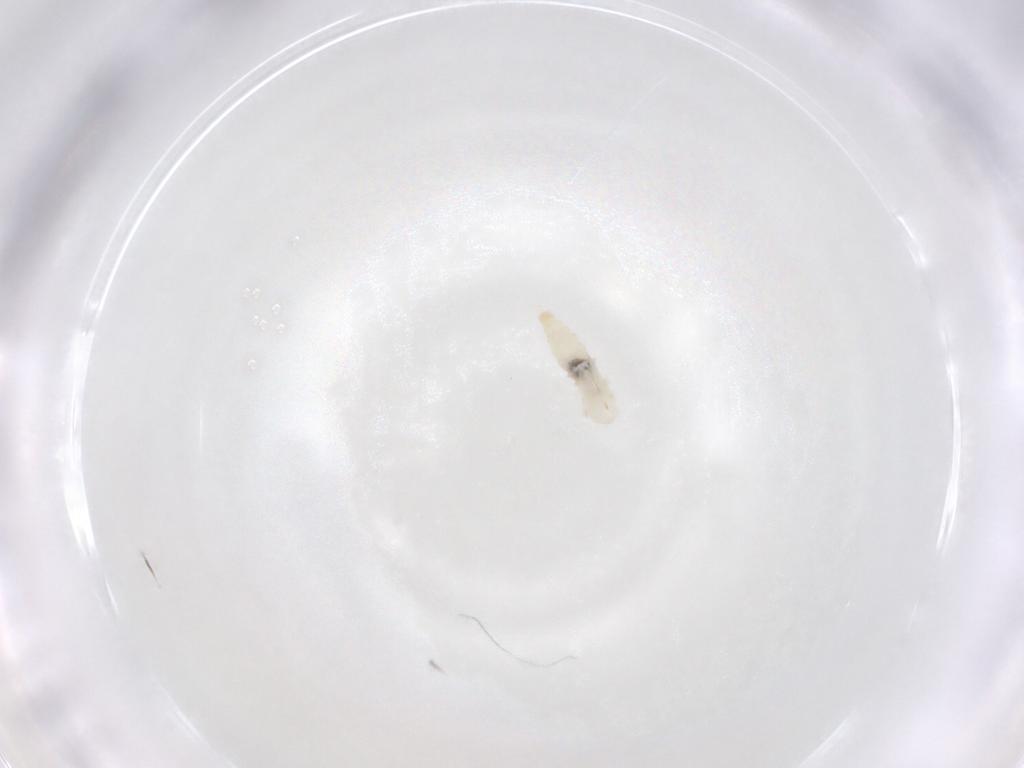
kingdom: Animalia
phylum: Arthropoda
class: Insecta
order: Diptera
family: Cecidomyiidae
